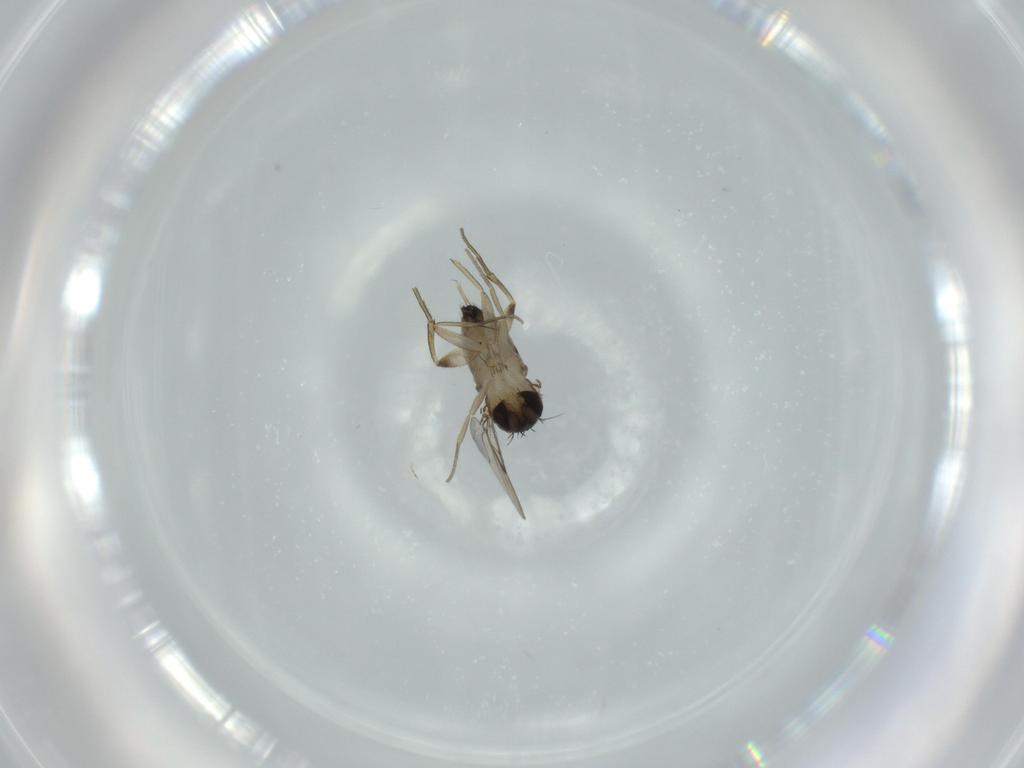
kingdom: Animalia
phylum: Arthropoda
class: Insecta
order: Diptera
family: Phoridae
